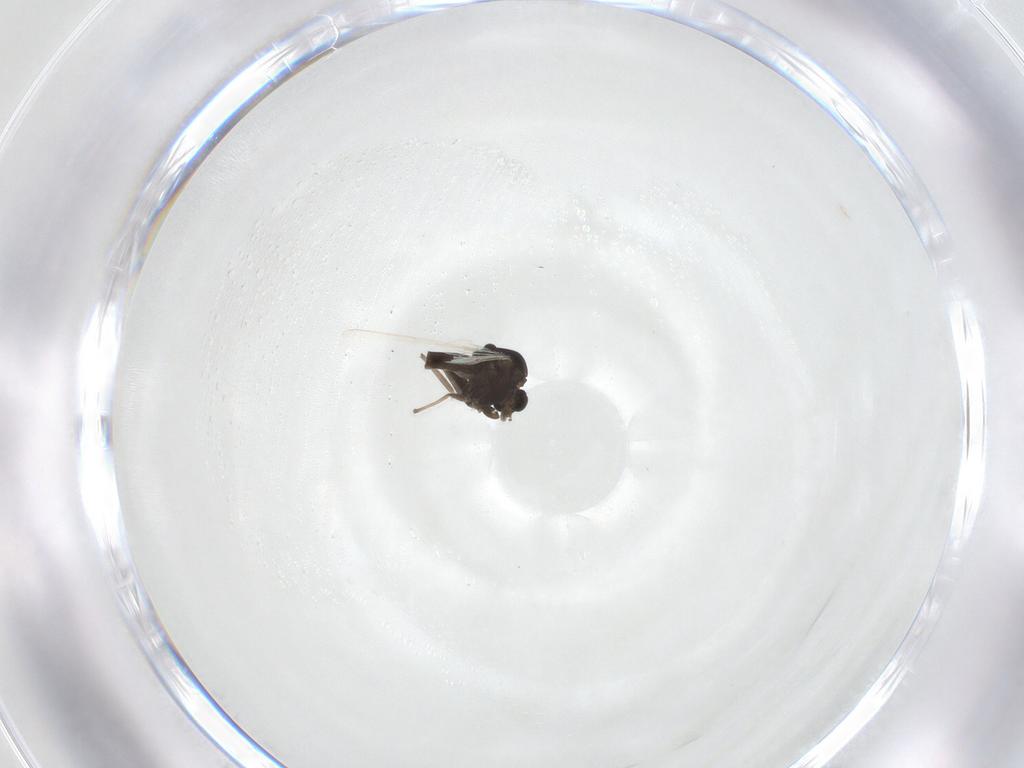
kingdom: Animalia
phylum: Arthropoda
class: Insecta
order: Diptera
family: Chironomidae
